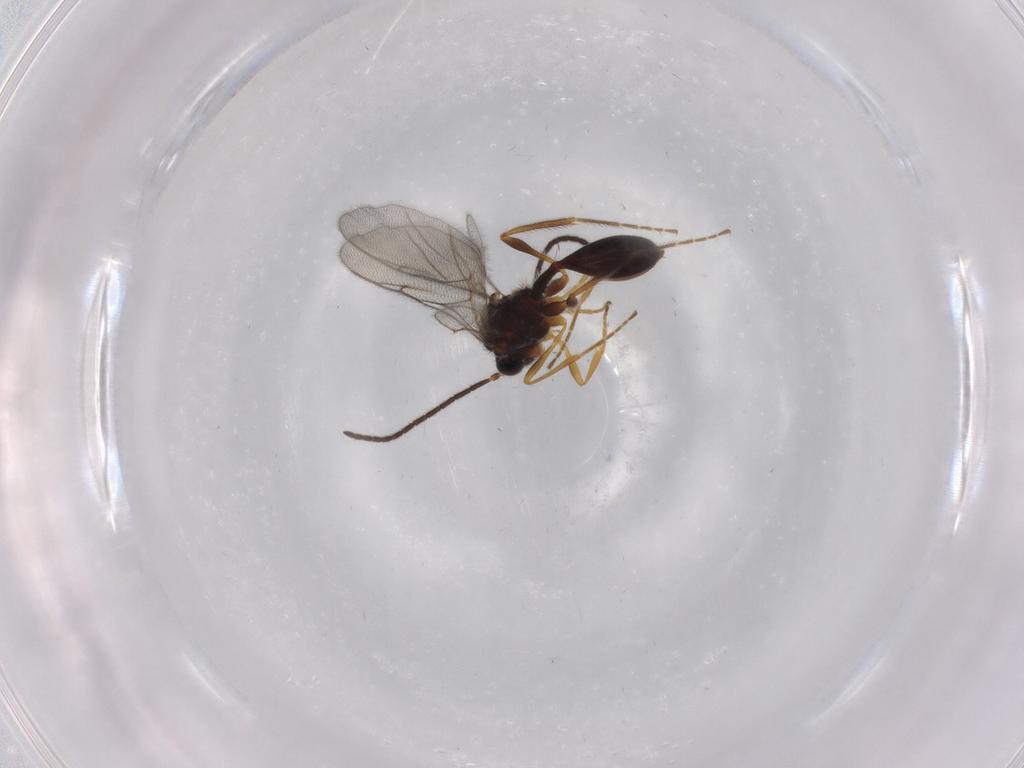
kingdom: Animalia
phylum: Arthropoda
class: Insecta
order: Hymenoptera
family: Diapriidae
